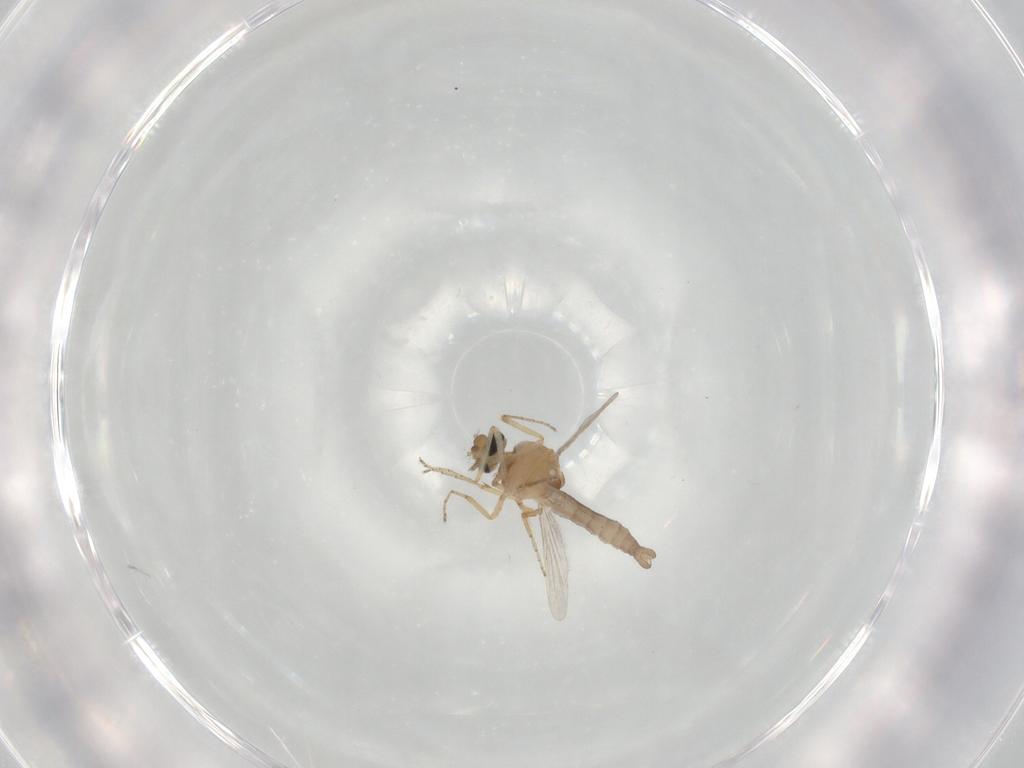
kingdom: Animalia
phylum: Arthropoda
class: Insecta
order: Diptera
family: Ceratopogonidae
